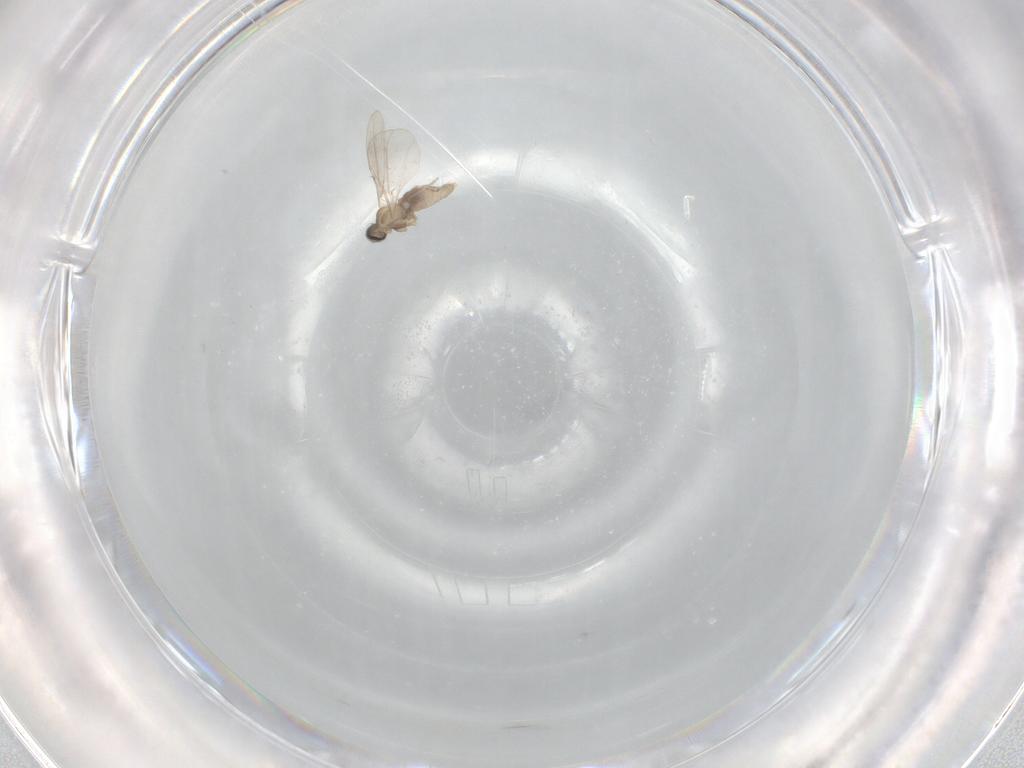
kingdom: Animalia
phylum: Arthropoda
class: Insecta
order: Diptera
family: Cecidomyiidae
